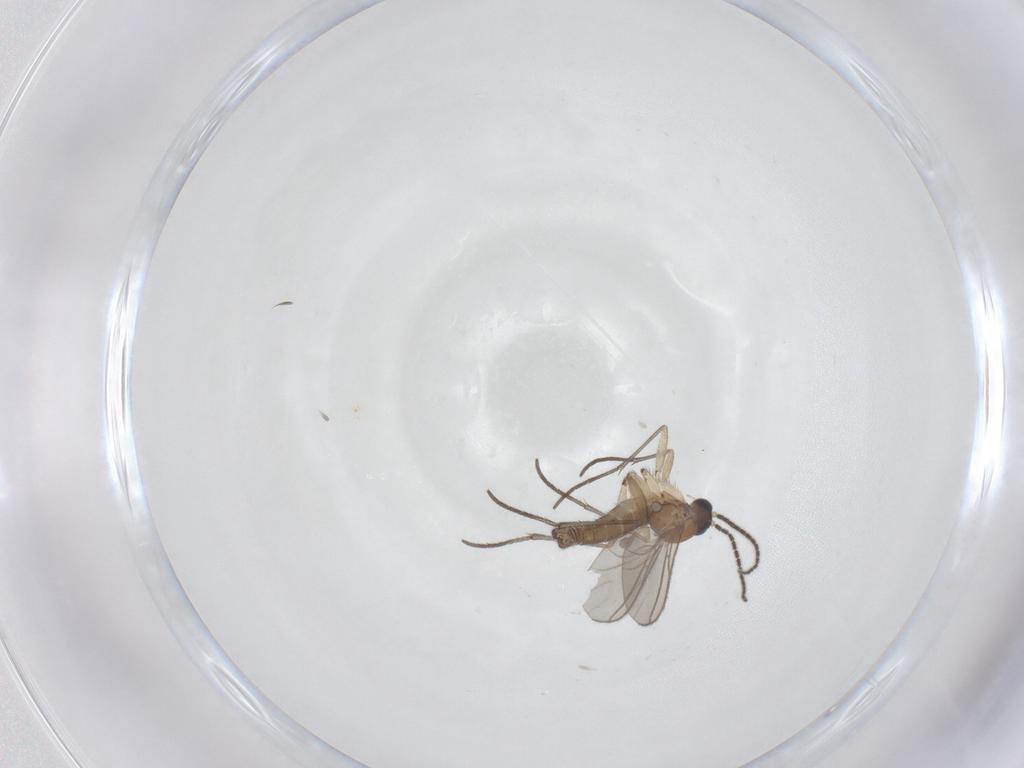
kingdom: Animalia
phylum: Arthropoda
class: Insecta
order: Diptera
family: Sciaridae
